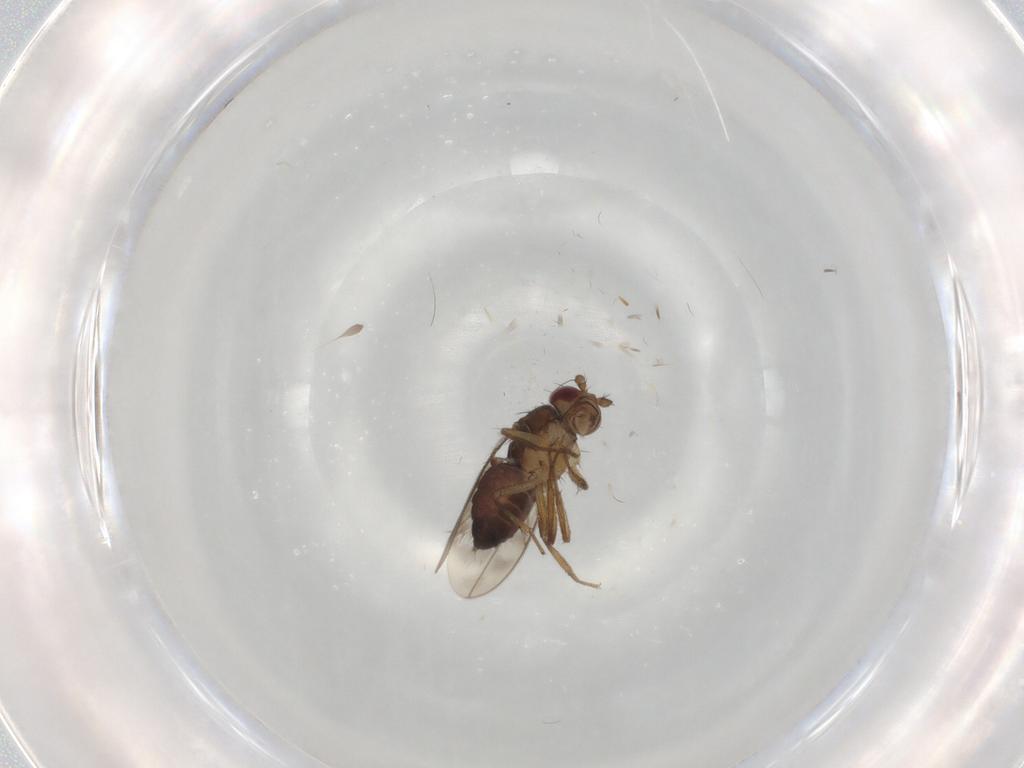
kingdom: Animalia
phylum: Arthropoda
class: Insecta
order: Diptera
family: Sphaeroceridae
